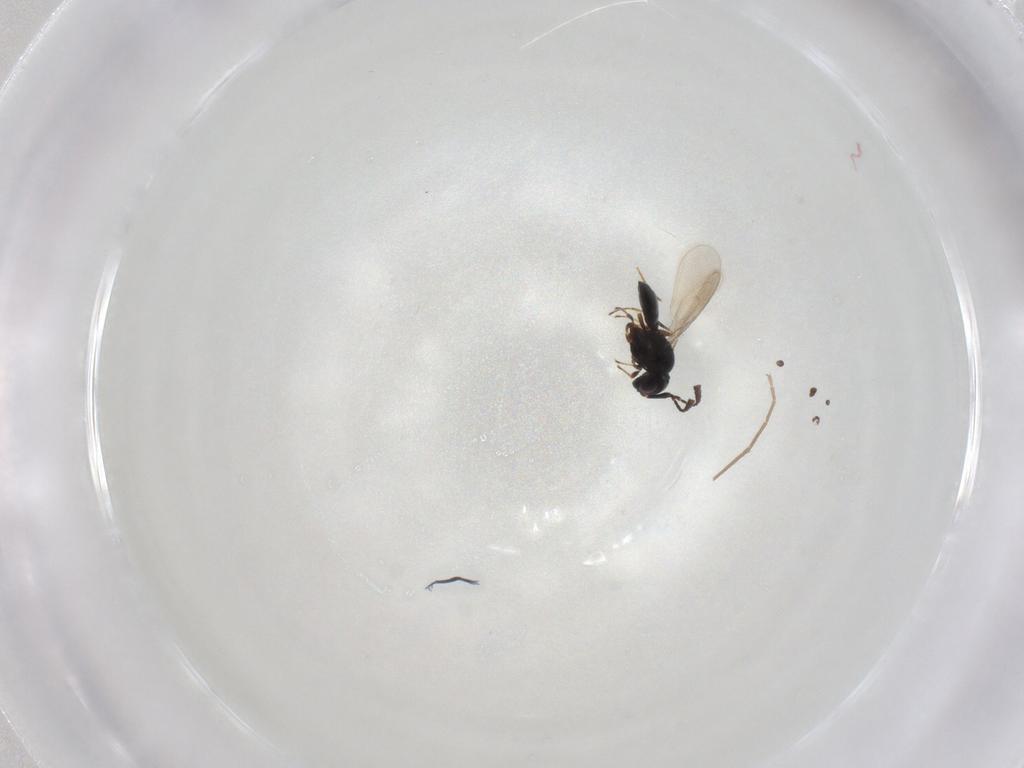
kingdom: Animalia
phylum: Arthropoda
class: Insecta
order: Hymenoptera
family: Scelionidae
